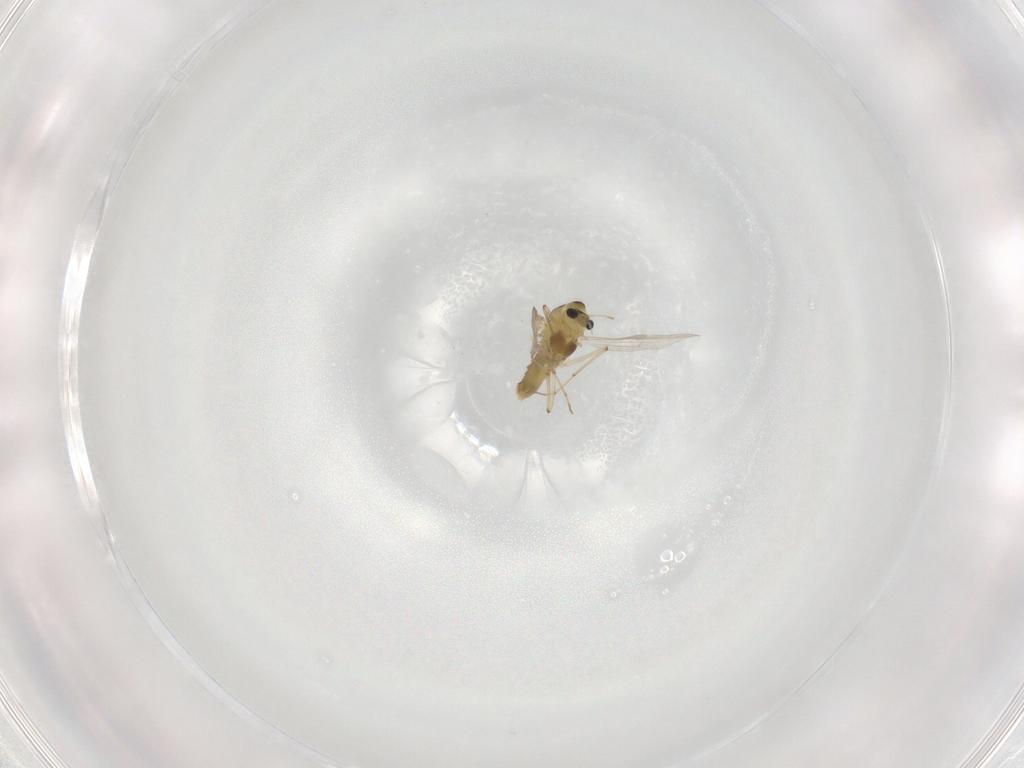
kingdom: Animalia
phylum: Arthropoda
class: Insecta
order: Diptera
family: Chironomidae
